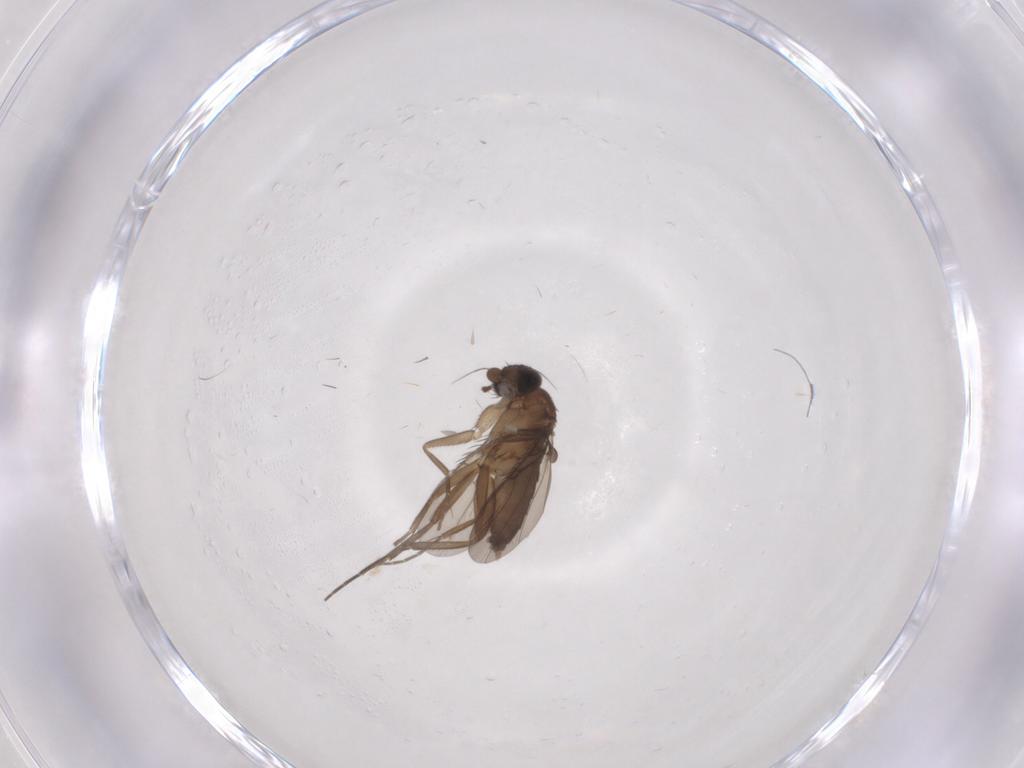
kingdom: Animalia
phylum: Arthropoda
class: Insecta
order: Diptera
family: Phoridae
